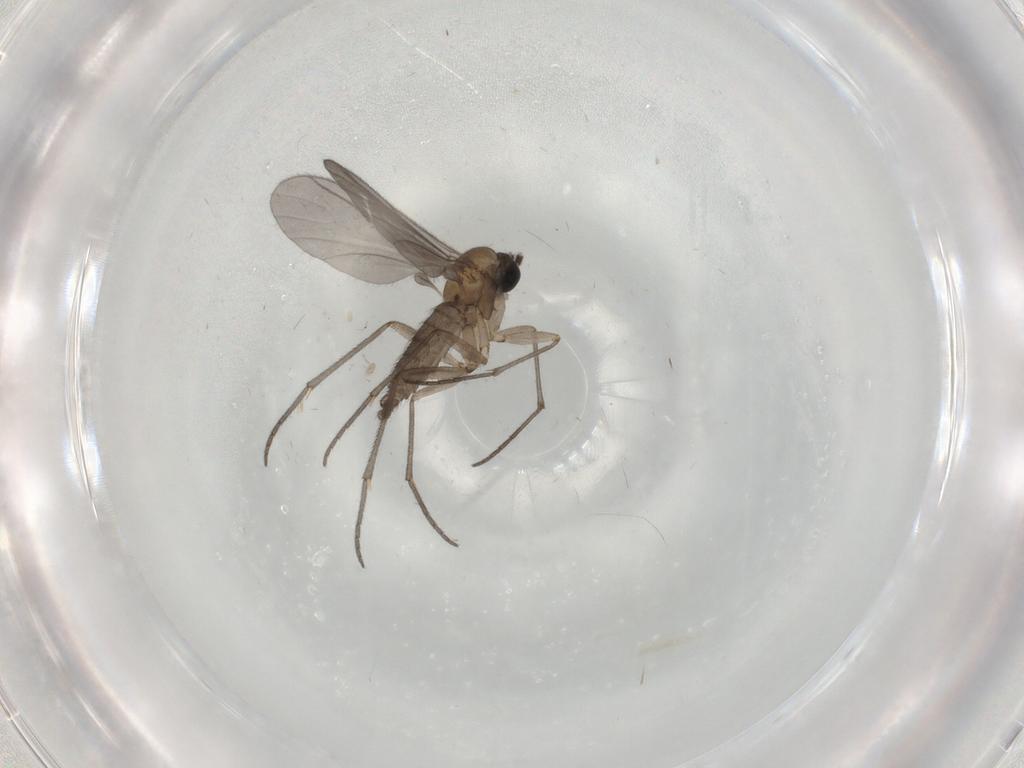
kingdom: Animalia
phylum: Arthropoda
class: Insecta
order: Diptera
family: Sciaridae
